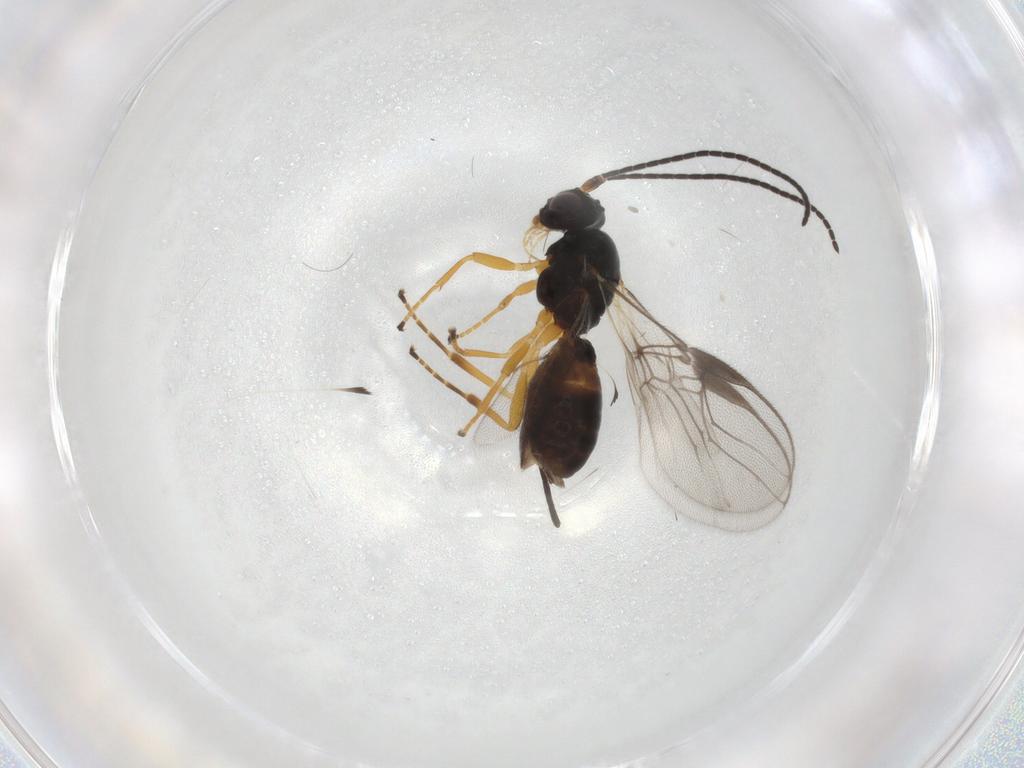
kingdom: Animalia
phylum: Arthropoda
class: Insecta
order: Hymenoptera
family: Braconidae
